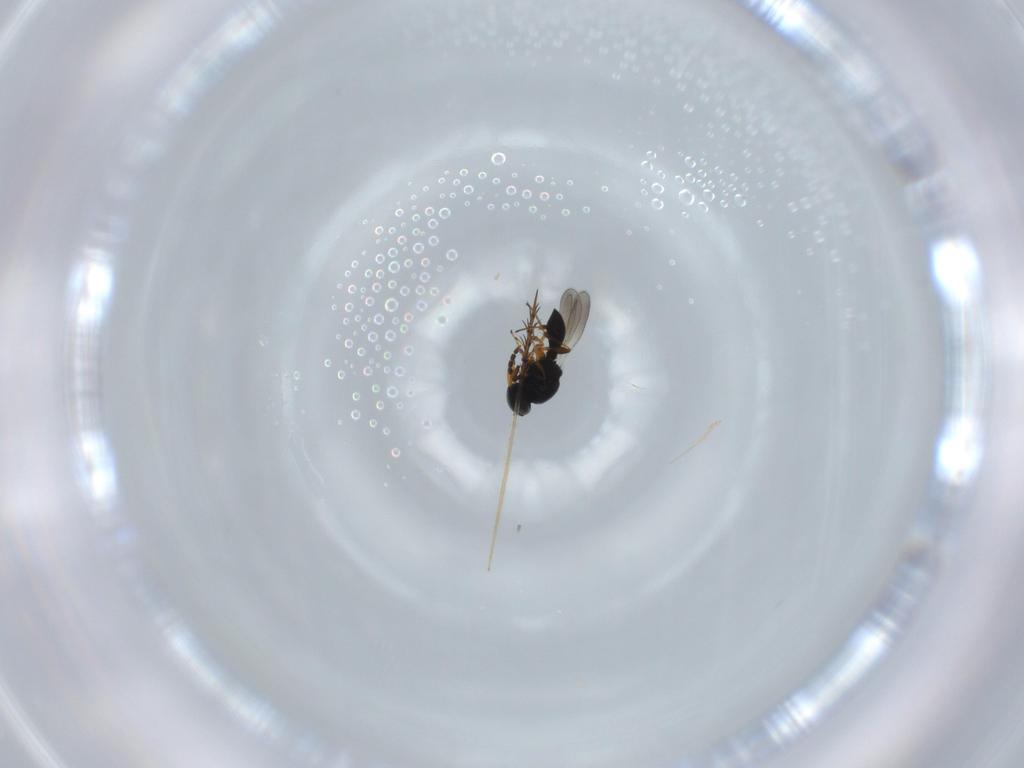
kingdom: Animalia
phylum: Arthropoda
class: Insecta
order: Hymenoptera
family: Platygastridae
